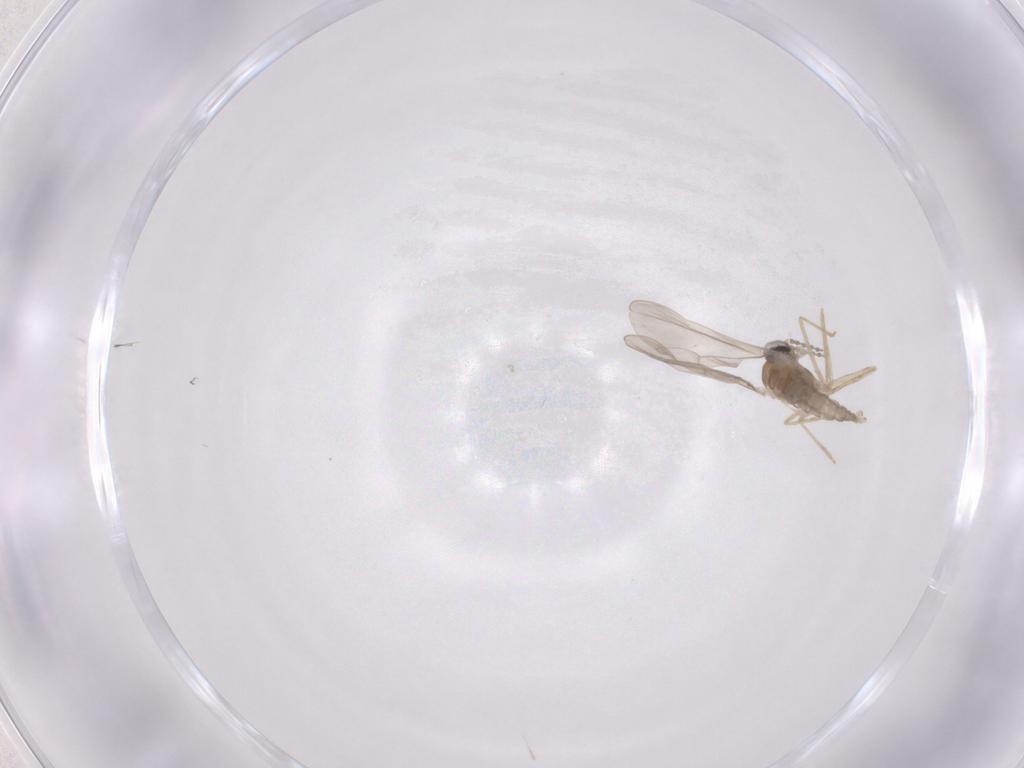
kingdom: Animalia
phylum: Arthropoda
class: Insecta
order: Diptera
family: Cecidomyiidae
